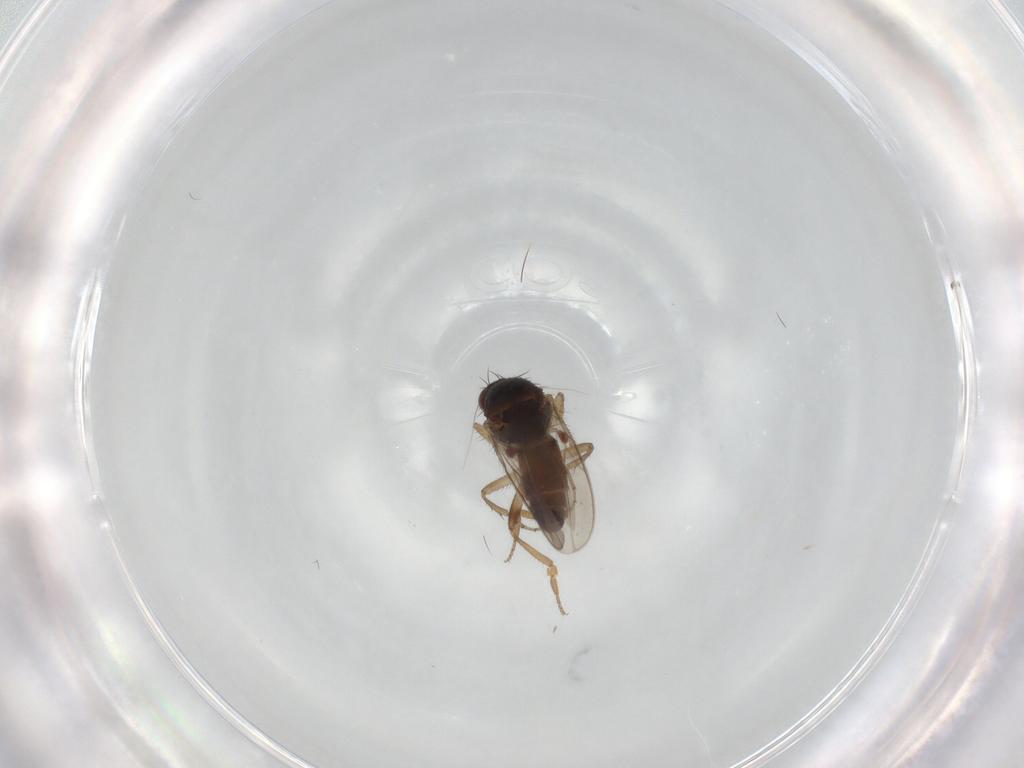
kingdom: Animalia
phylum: Arthropoda
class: Insecta
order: Diptera
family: Sphaeroceridae
